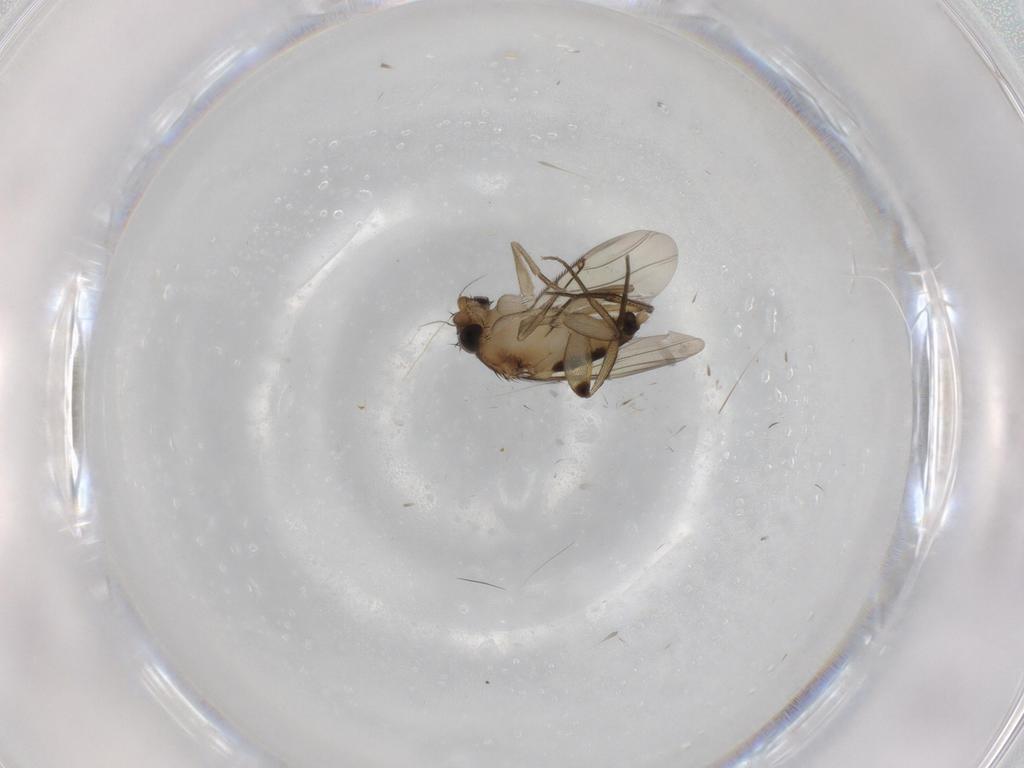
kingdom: Animalia
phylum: Arthropoda
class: Insecta
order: Diptera
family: Phoridae
